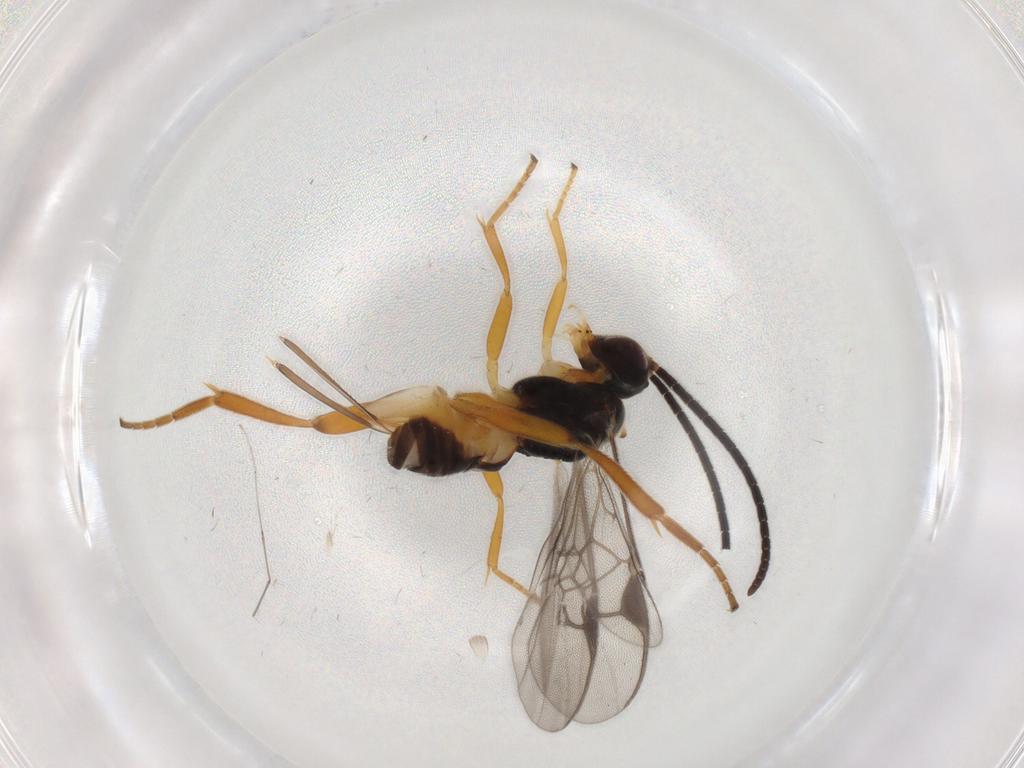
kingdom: Animalia
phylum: Arthropoda
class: Insecta
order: Hymenoptera
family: Braconidae
